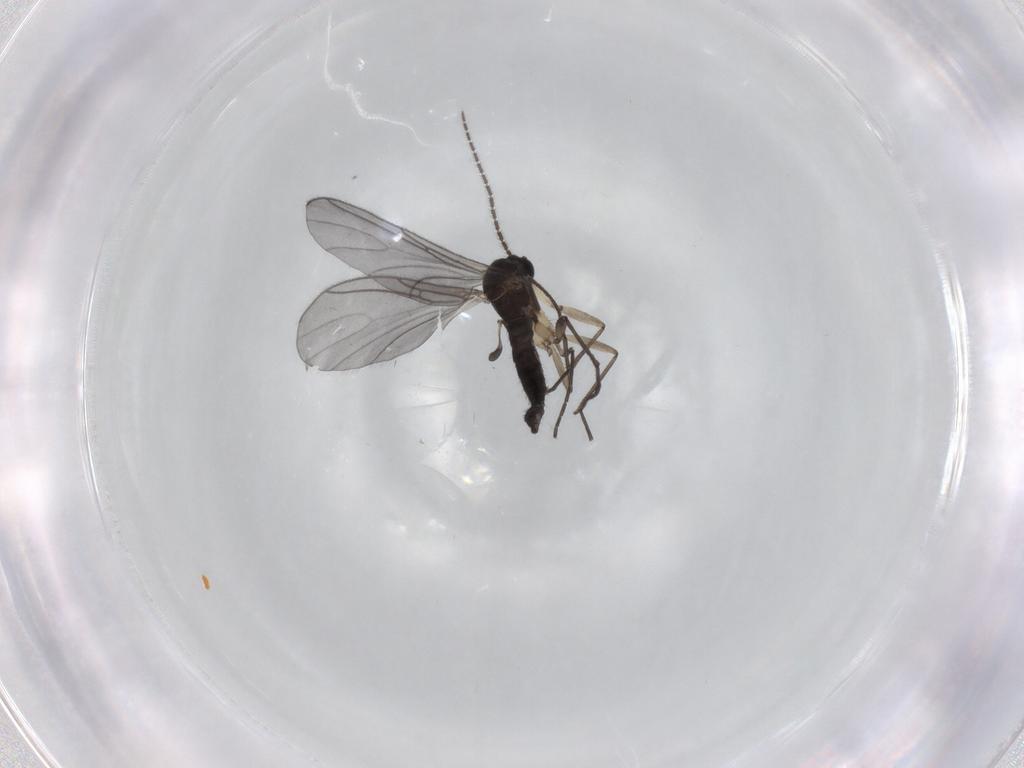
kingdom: Animalia
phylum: Arthropoda
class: Insecta
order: Diptera
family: Sciaridae
